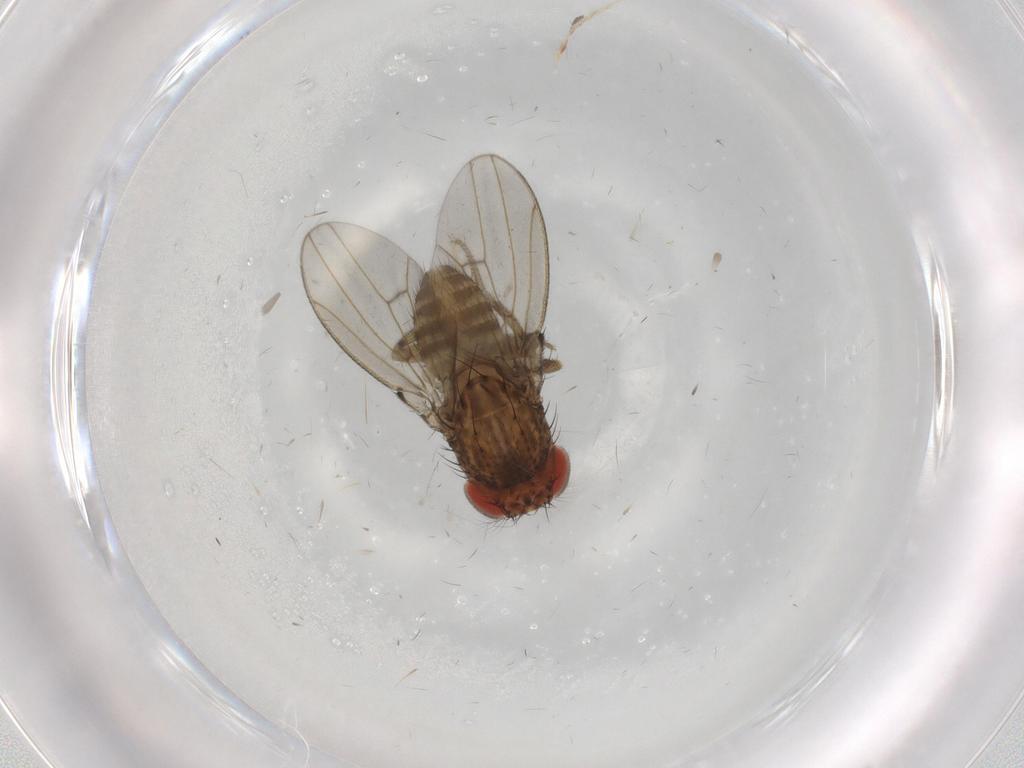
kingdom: Animalia
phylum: Arthropoda
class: Insecta
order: Diptera
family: Drosophilidae
